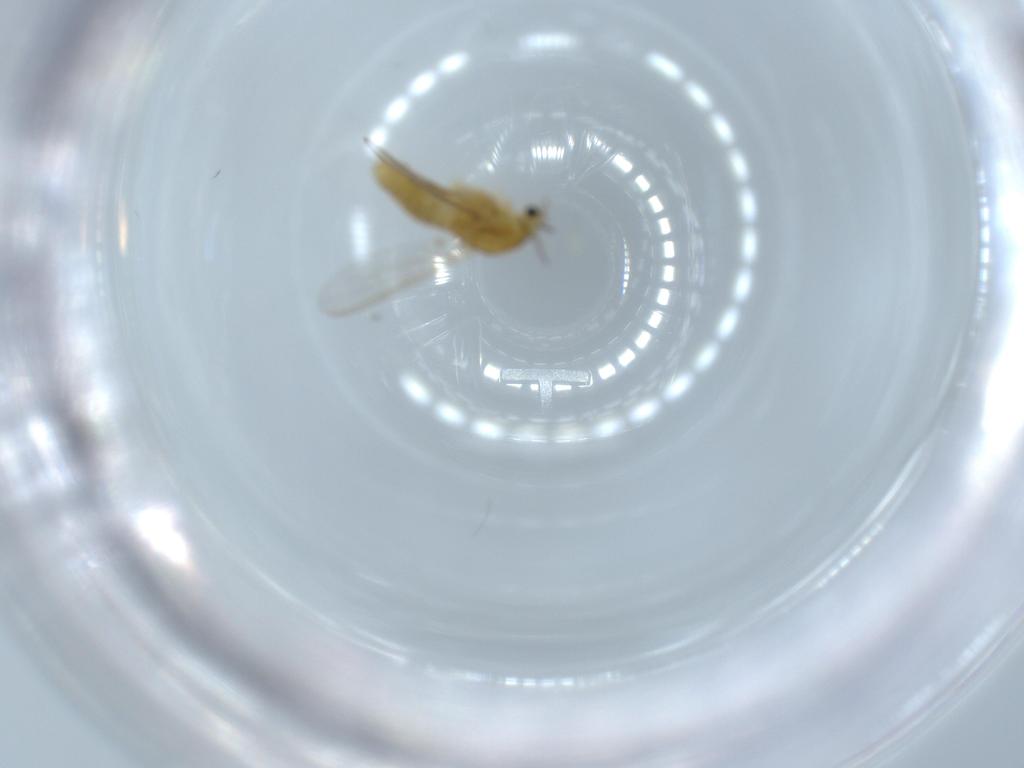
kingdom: Animalia
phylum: Arthropoda
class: Insecta
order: Diptera
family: Chironomidae
